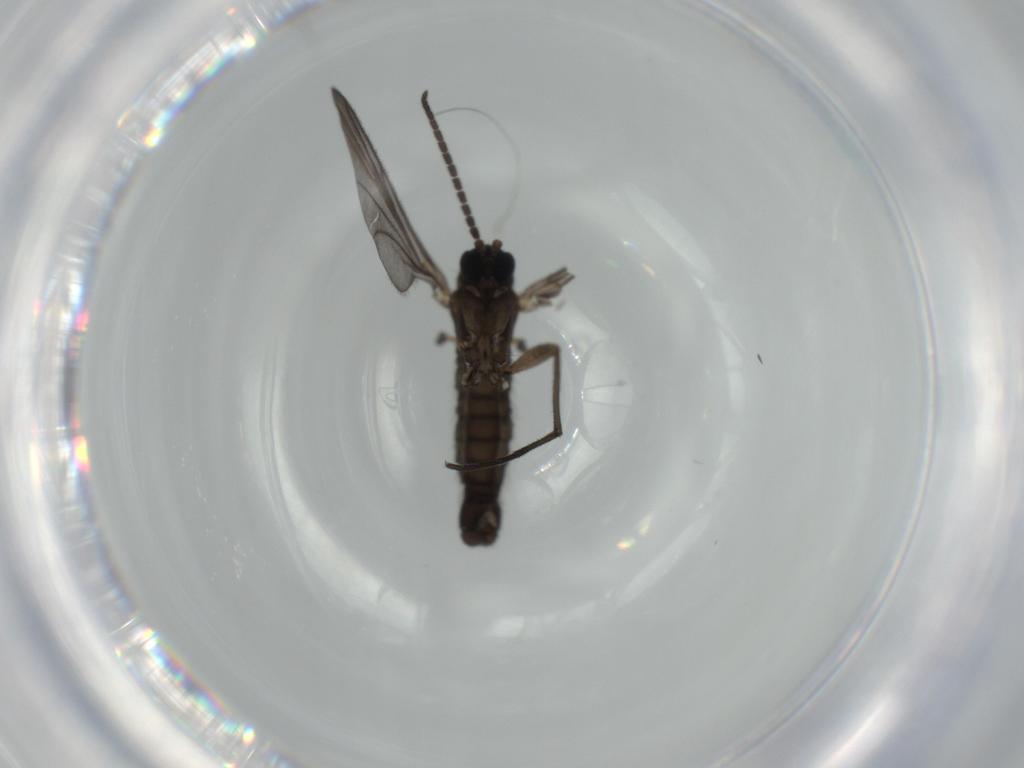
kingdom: Animalia
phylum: Arthropoda
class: Insecta
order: Diptera
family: Sciaridae
